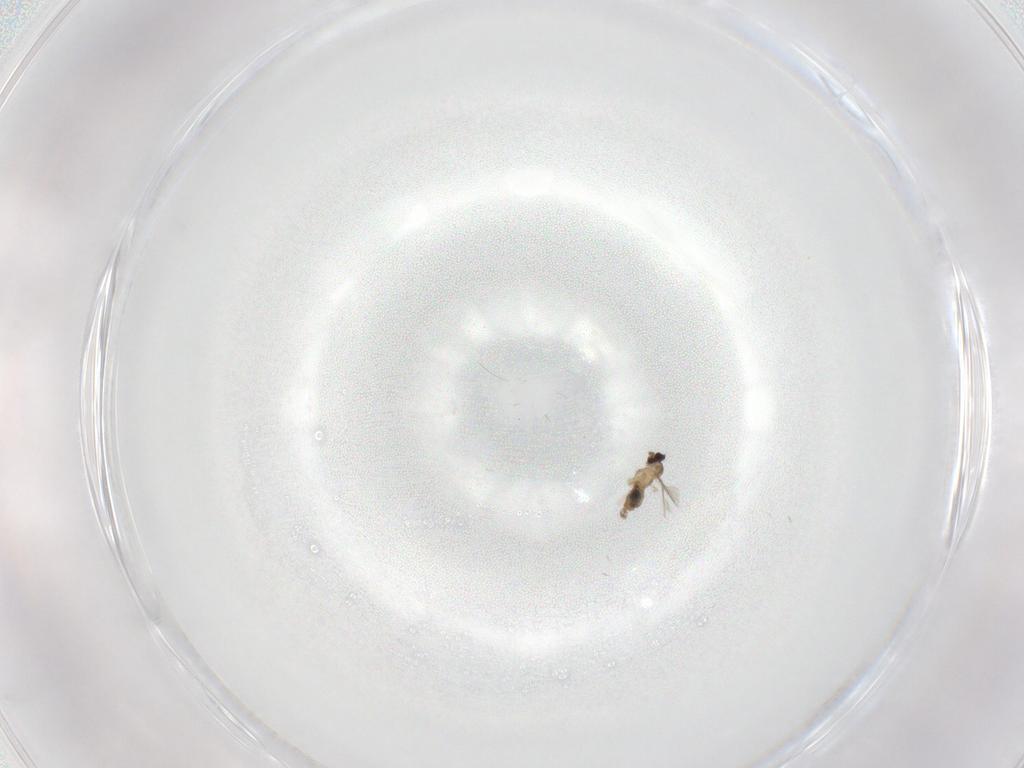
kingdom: Animalia
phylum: Arthropoda
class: Insecta
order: Diptera
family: Cecidomyiidae
